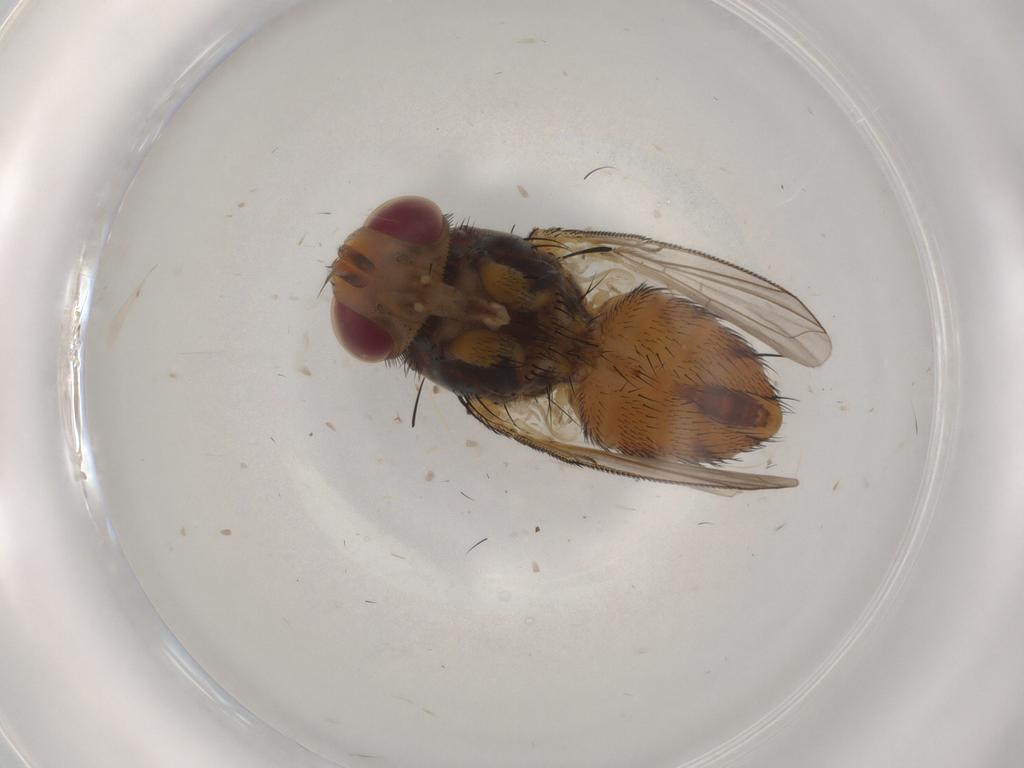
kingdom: Animalia
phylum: Arthropoda
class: Insecta
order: Diptera
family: Tachinidae
